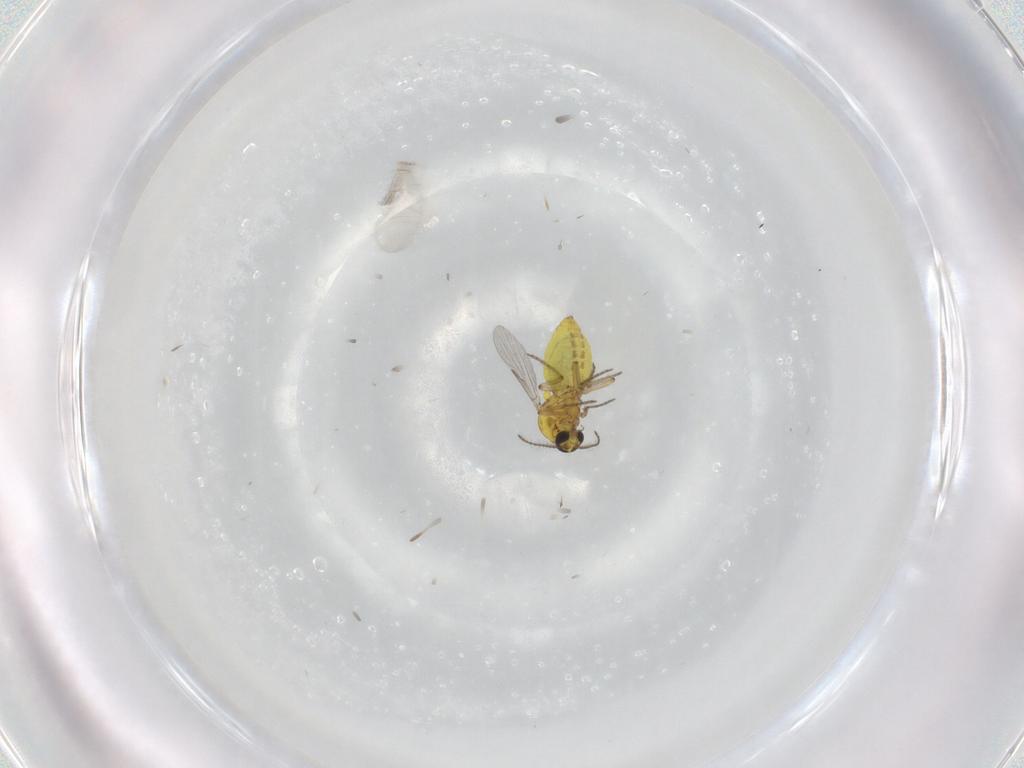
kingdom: Animalia
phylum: Arthropoda
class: Insecta
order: Diptera
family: Ceratopogonidae
